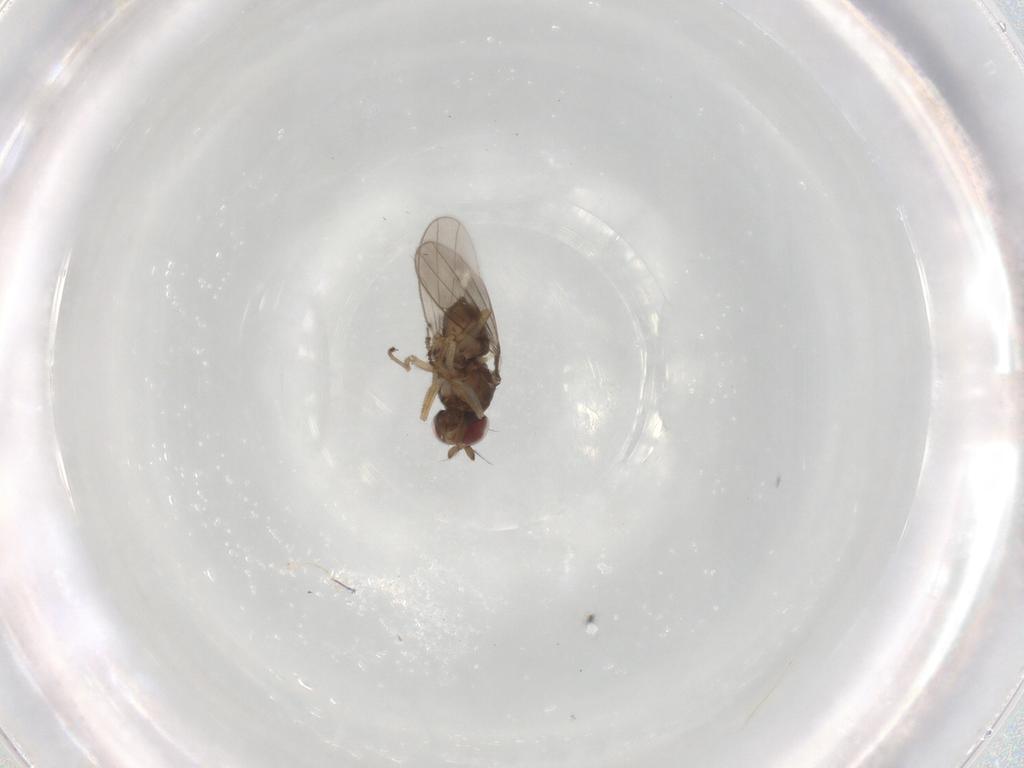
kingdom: Animalia
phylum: Arthropoda
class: Insecta
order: Diptera
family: Ephydridae
